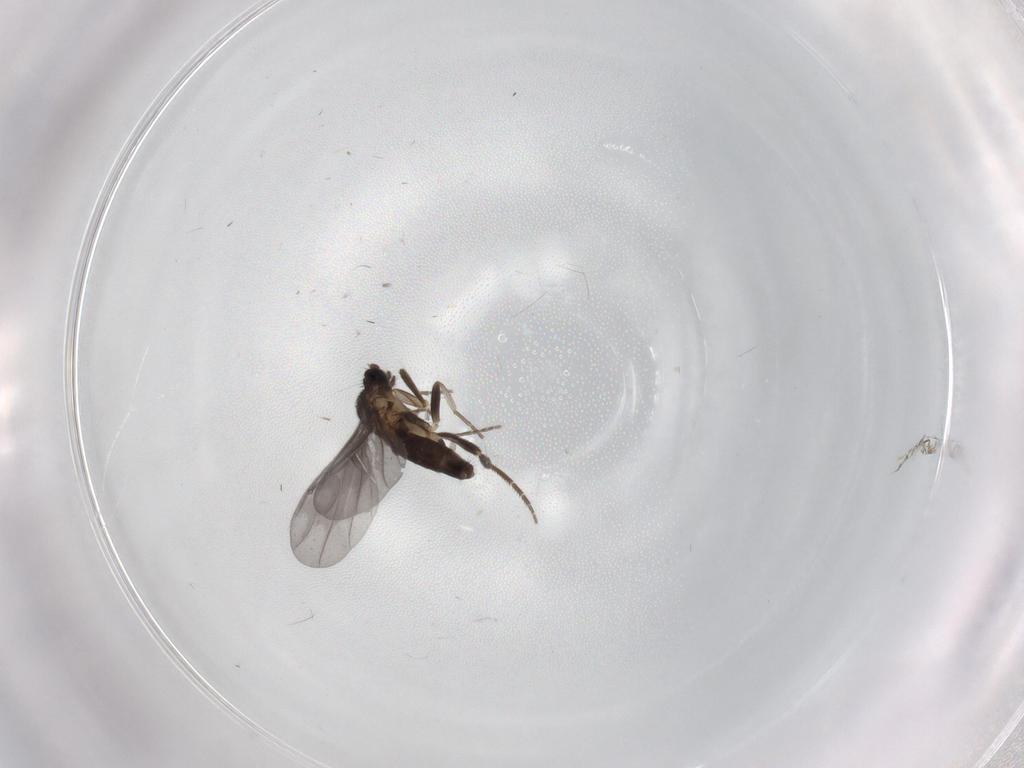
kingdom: Animalia
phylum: Arthropoda
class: Insecta
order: Diptera
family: Phoridae
